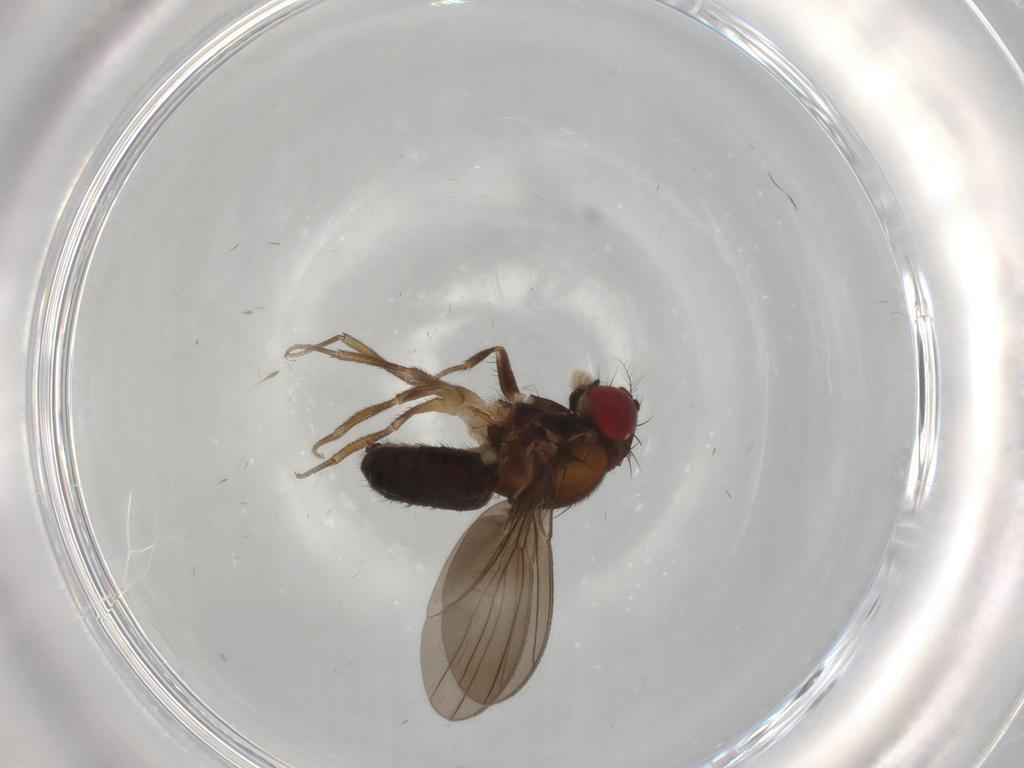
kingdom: Animalia
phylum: Arthropoda
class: Insecta
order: Diptera
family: Drosophilidae
